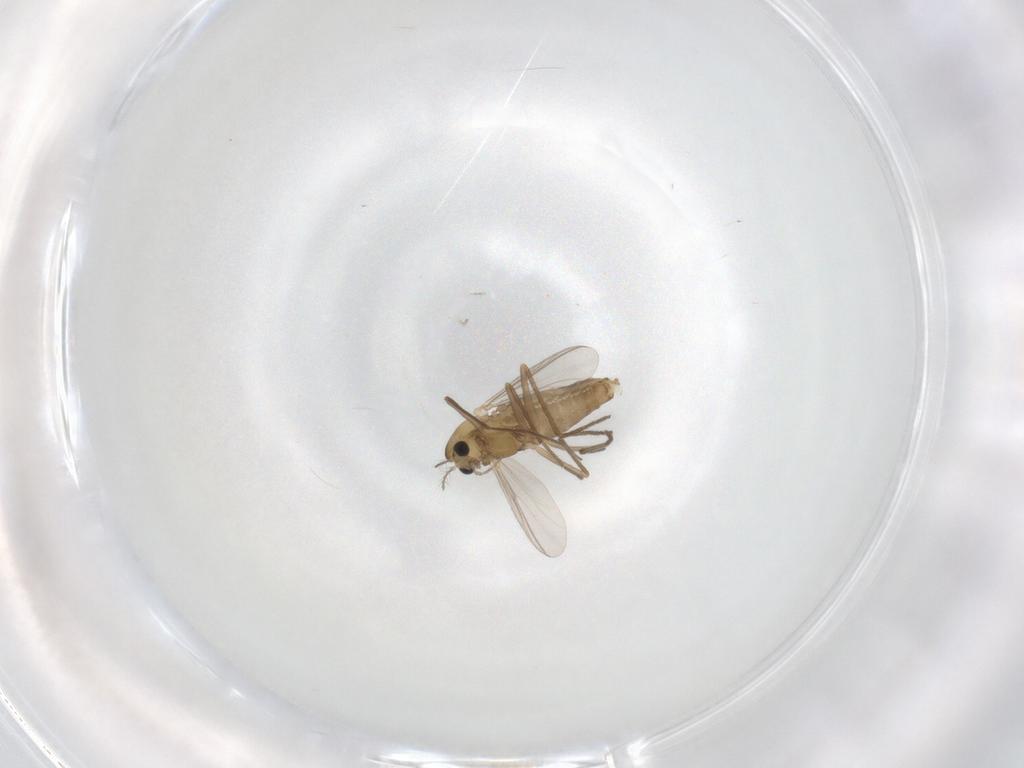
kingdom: Animalia
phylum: Arthropoda
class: Insecta
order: Diptera
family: Chironomidae
